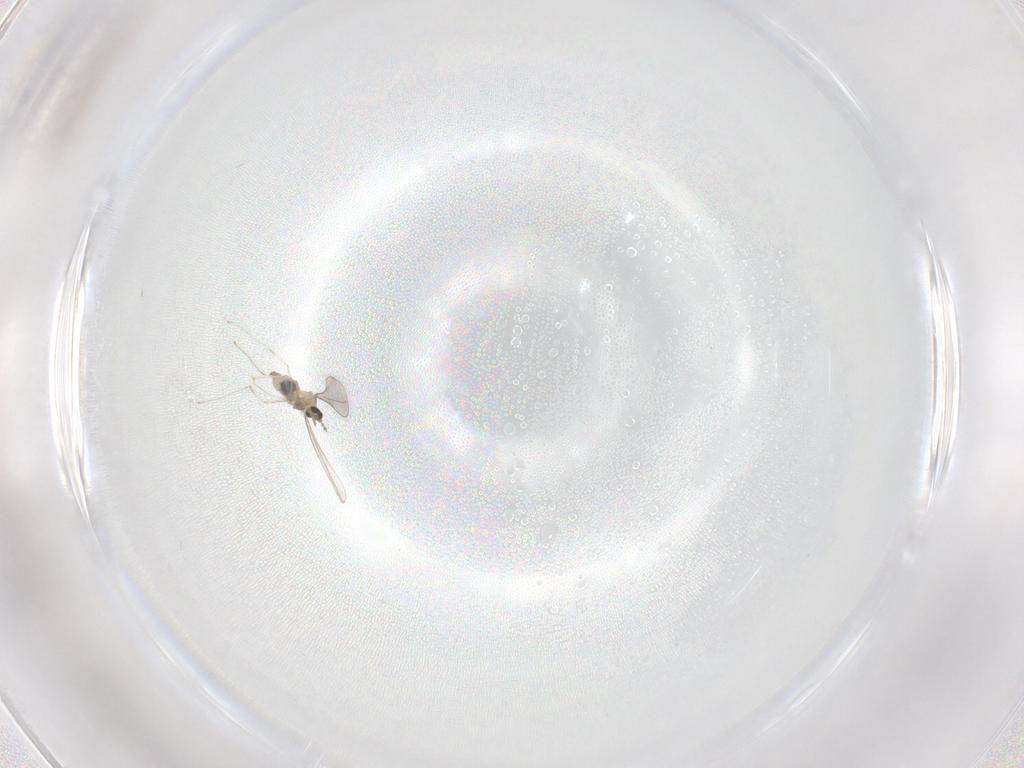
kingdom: Animalia
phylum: Arthropoda
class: Insecta
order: Diptera
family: Phoridae
